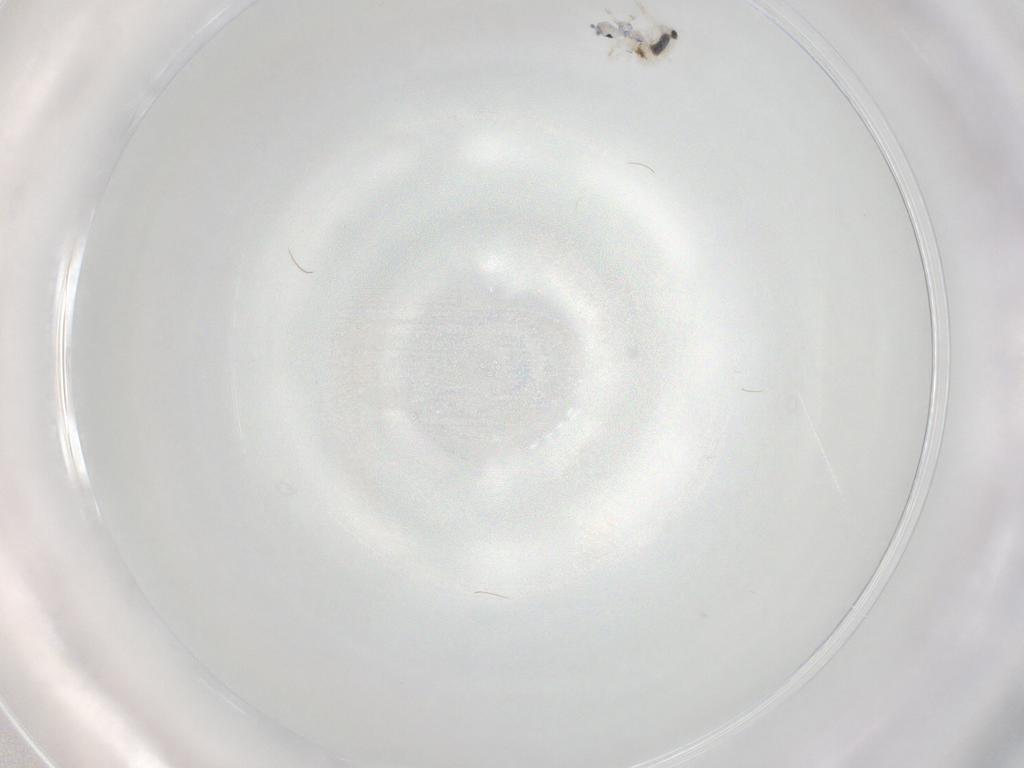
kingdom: Animalia
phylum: Arthropoda
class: Collembola
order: Entomobryomorpha
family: Entomobryidae
